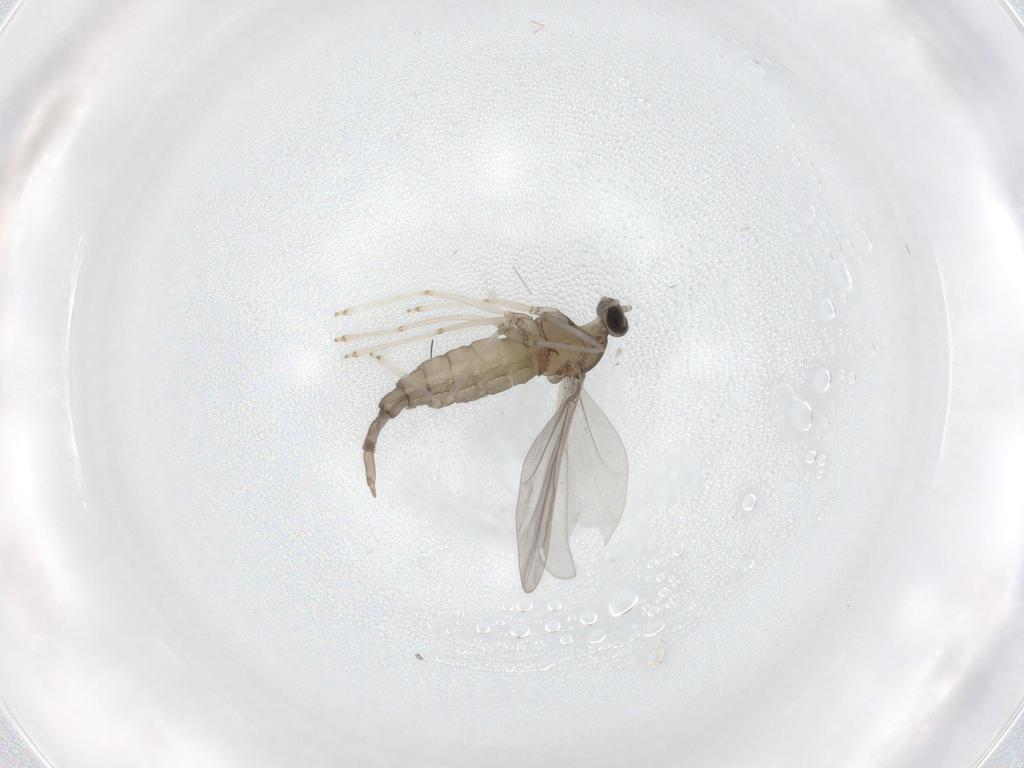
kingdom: Animalia
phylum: Arthropoda
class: Insecta
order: Diptera
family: Cecidomyiidae
